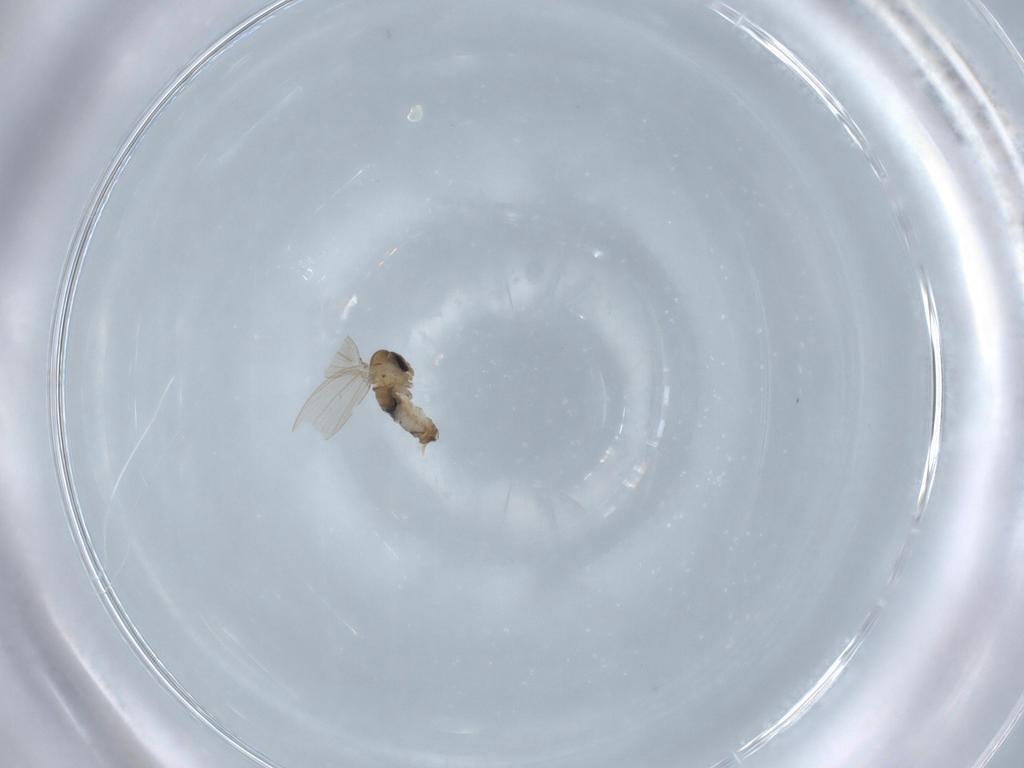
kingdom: Animalia
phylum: Arthropoda
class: Insecta
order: Diptera
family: Psychodidae
